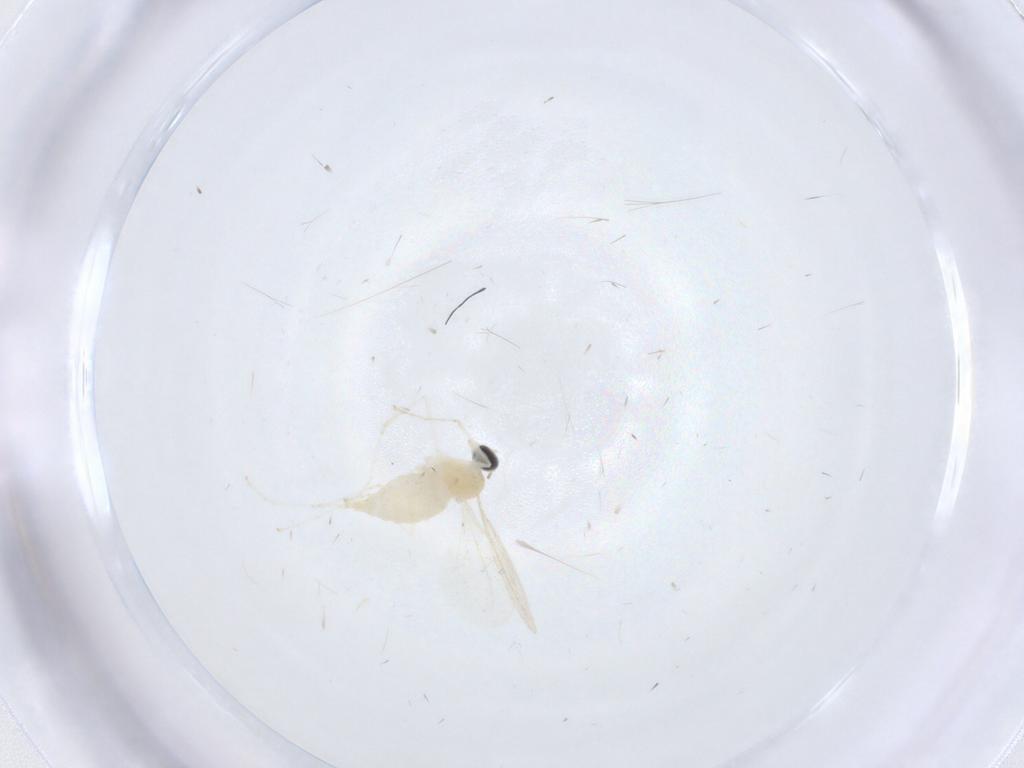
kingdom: Animalia
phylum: Arthropoda
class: Insecta
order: Diptera
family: Cecidomyiidae
